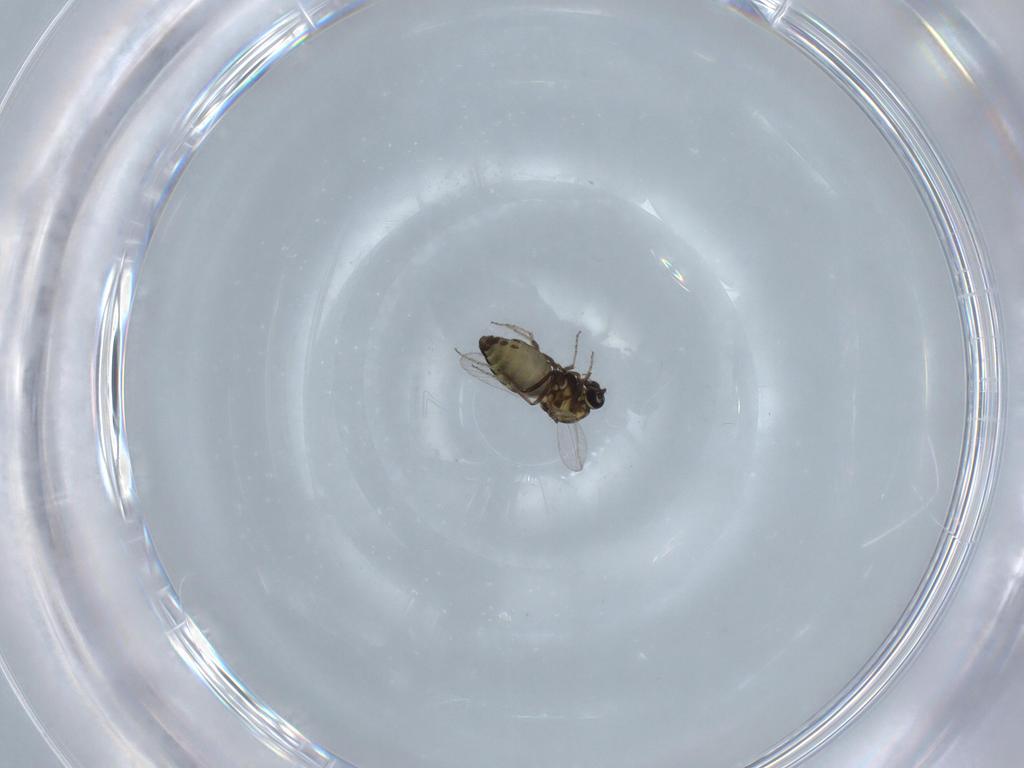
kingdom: Animalia
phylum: Arthropoda
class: Insecta
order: Diptera
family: Ceratopogonidae
